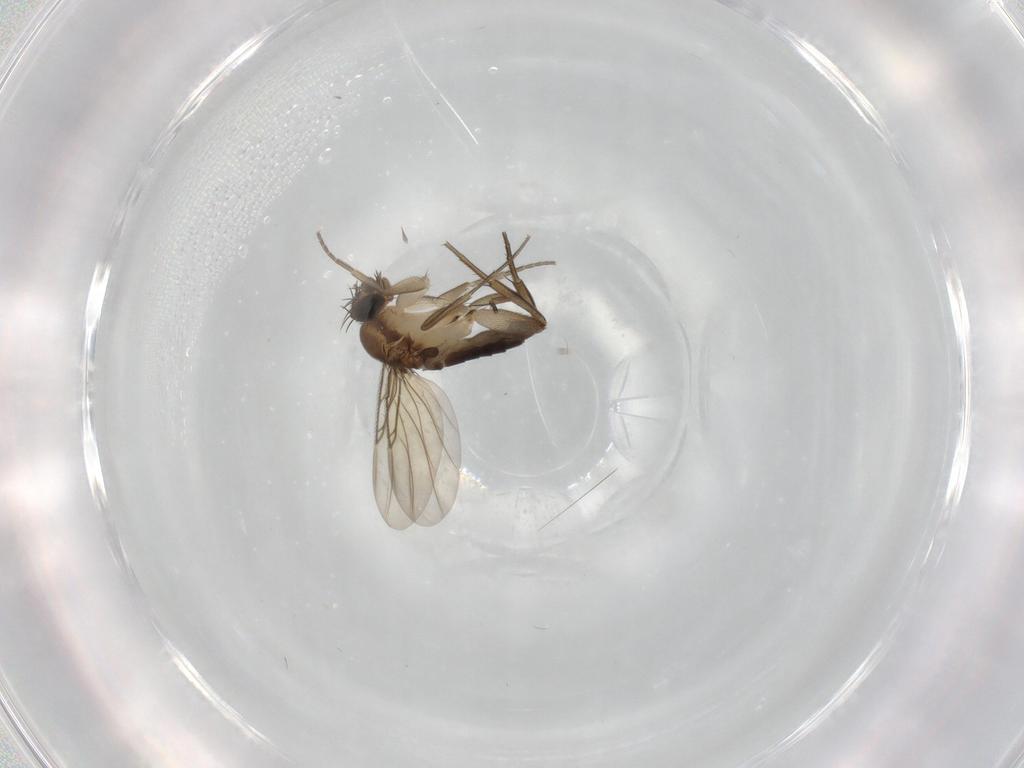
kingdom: Animalia
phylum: Arthropoda
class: Insecta
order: Diptera
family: Phoridae
